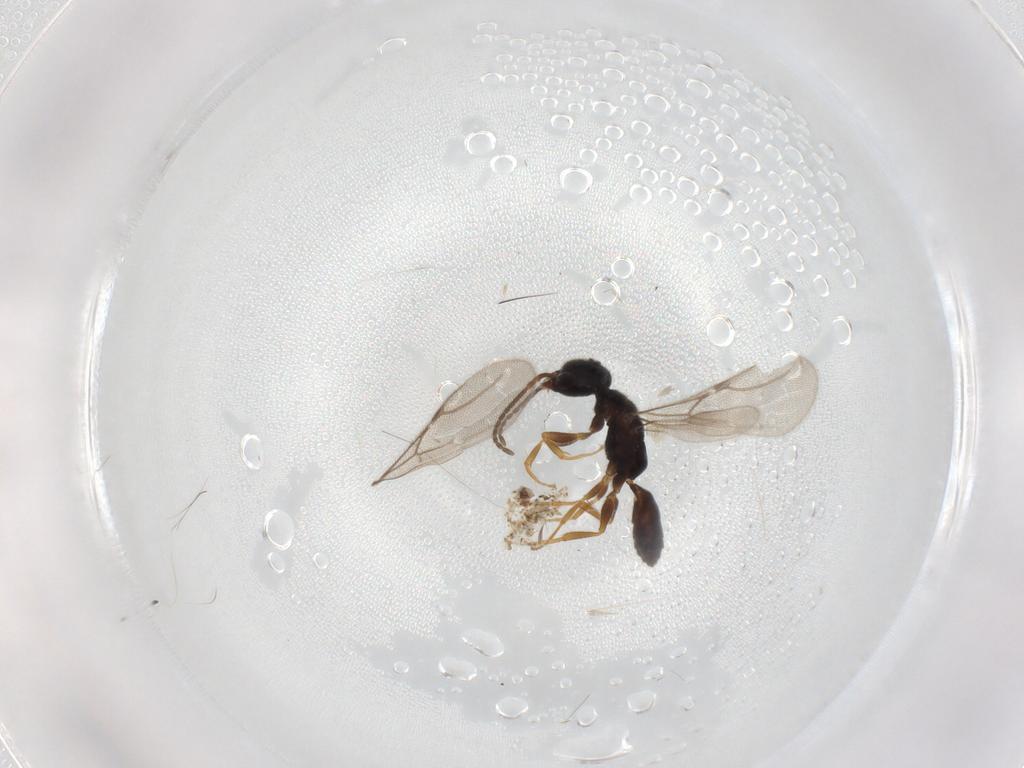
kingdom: Animalia
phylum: Arthropoda
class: Insecta
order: Hymenoptera
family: Bethylidae
